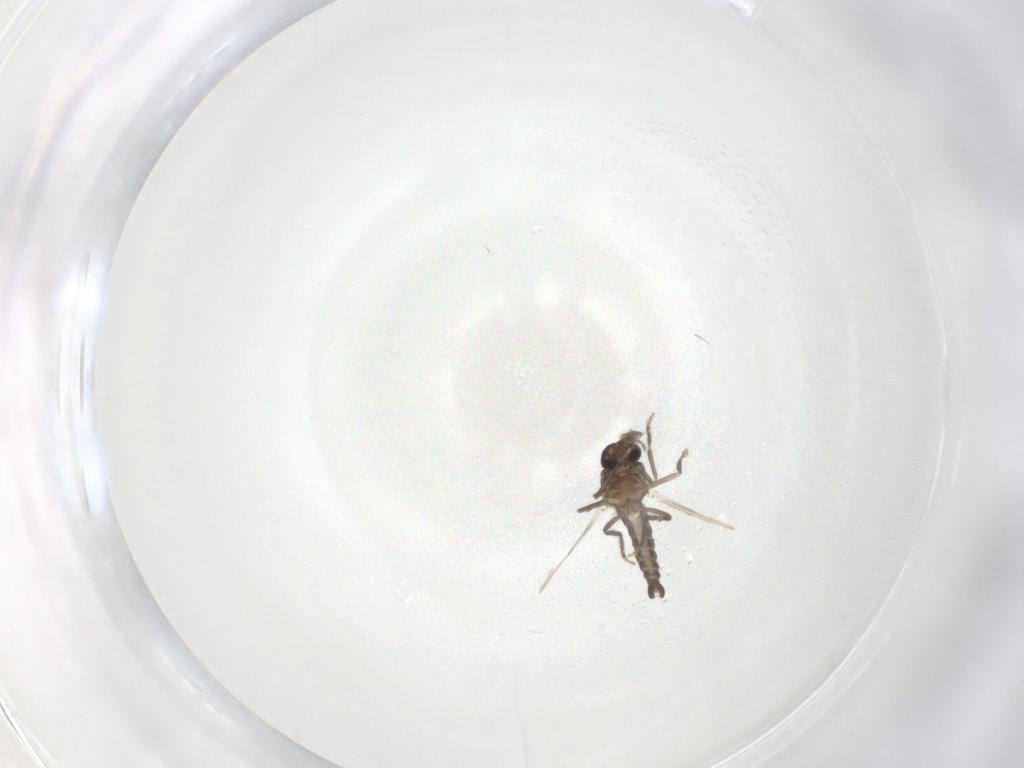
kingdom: Animalia
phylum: Arthropoda
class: Insecta
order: Diptera
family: Ceratopogonidae
